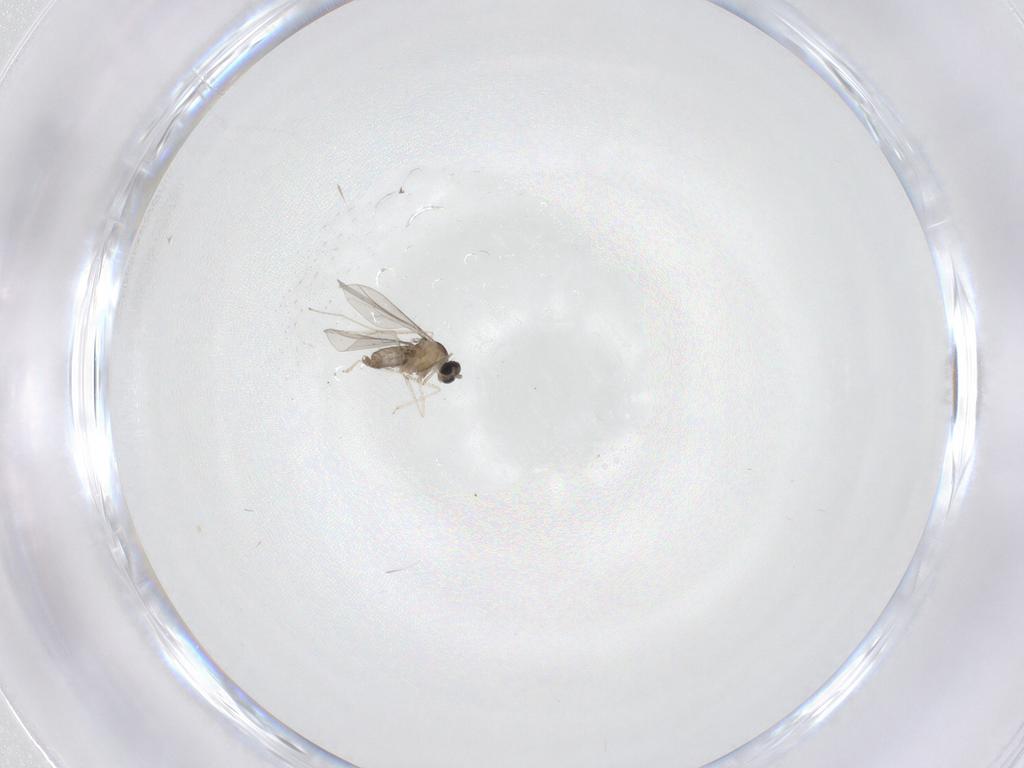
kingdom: Animalia
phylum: Arthropoda
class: Insecta
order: Diptera
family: Cecidomyiidae
